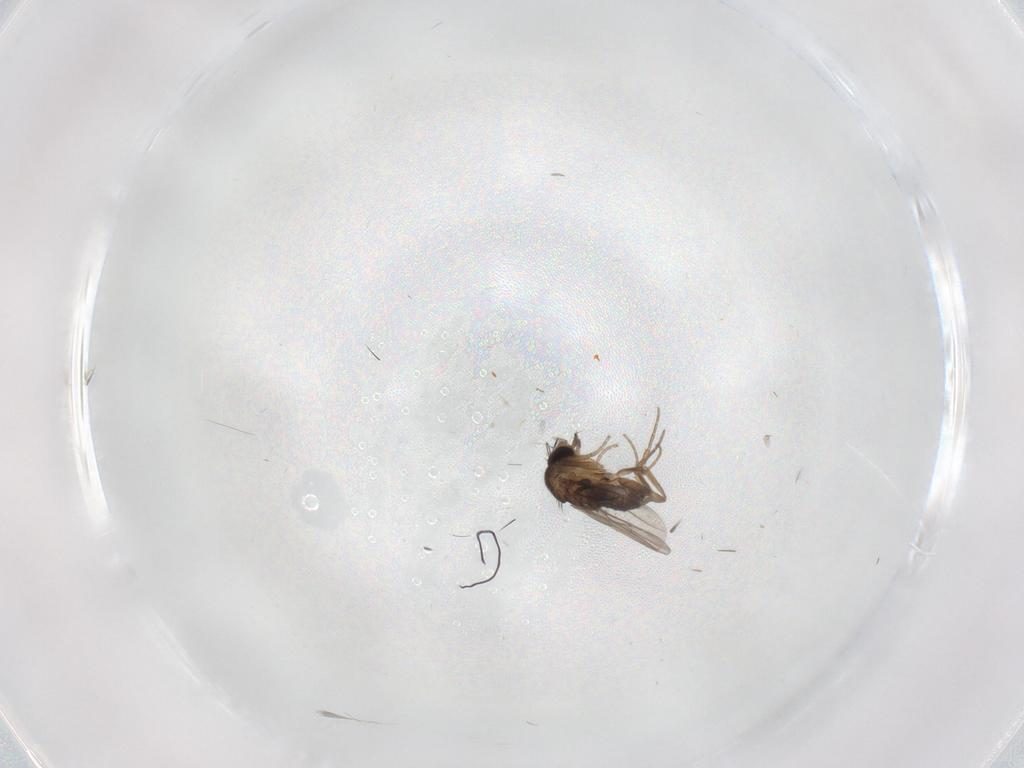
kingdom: Animalia
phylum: Arthropoda
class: Insecta
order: Diptera
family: Phoridae
